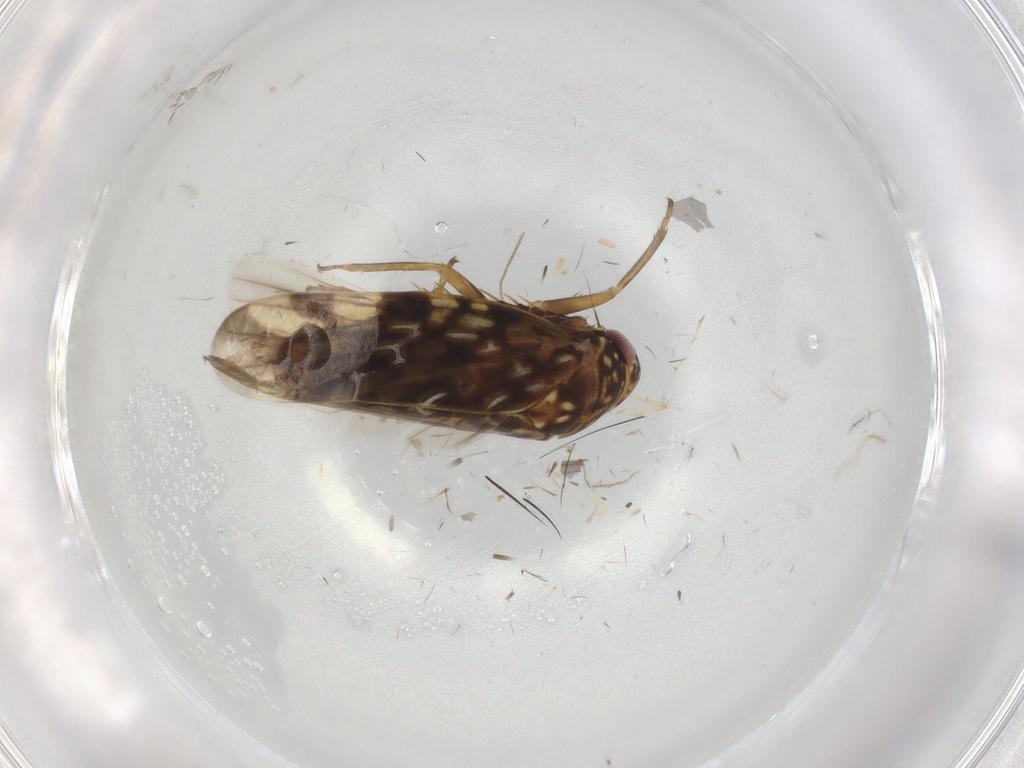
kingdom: Animalia
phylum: Arthropoda
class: Insecta
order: Hemiptera
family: Cicadellidae
